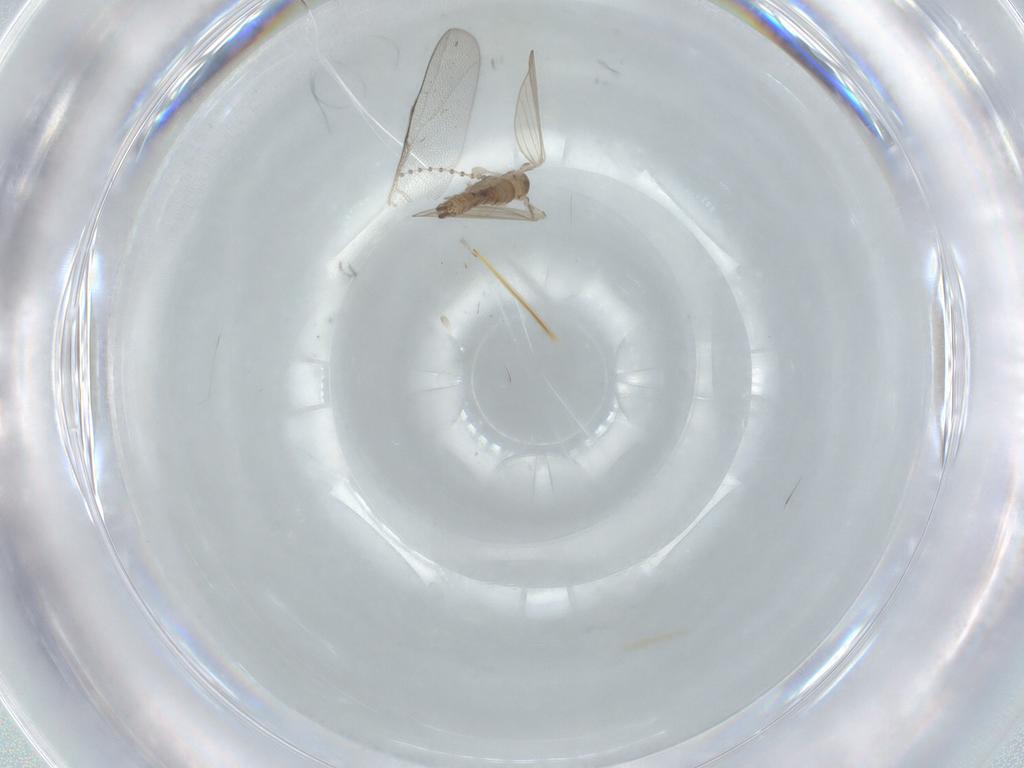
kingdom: Animalia
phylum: Arthropoda
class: Insecta
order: Diptera
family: Psychodidae
